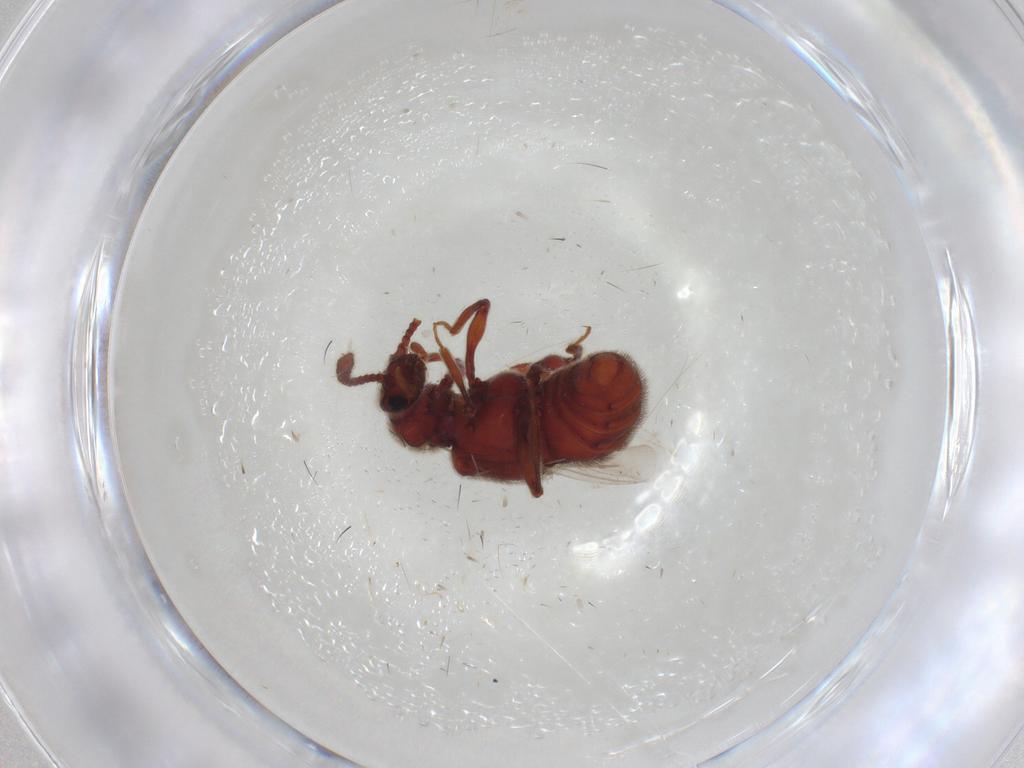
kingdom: Animalia
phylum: Arthropoda
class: Insecta
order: Coleoptera
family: Staphylinidae
